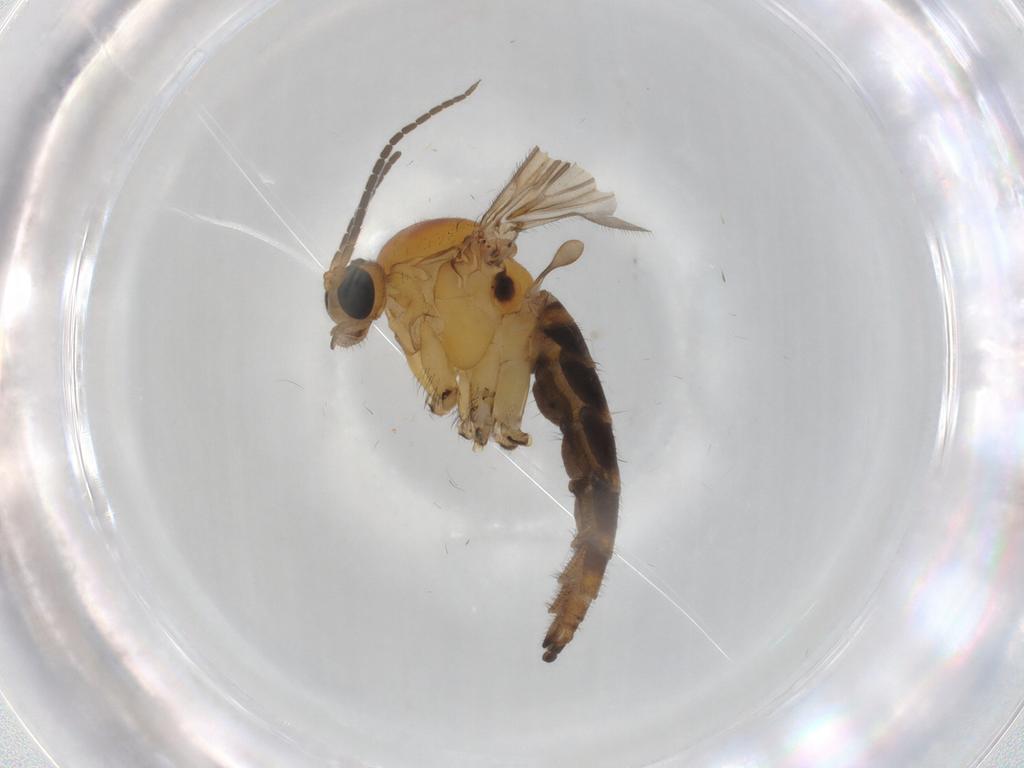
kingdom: Animalia
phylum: Arthropoda
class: Insecta
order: Diptera
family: Sciaridae
